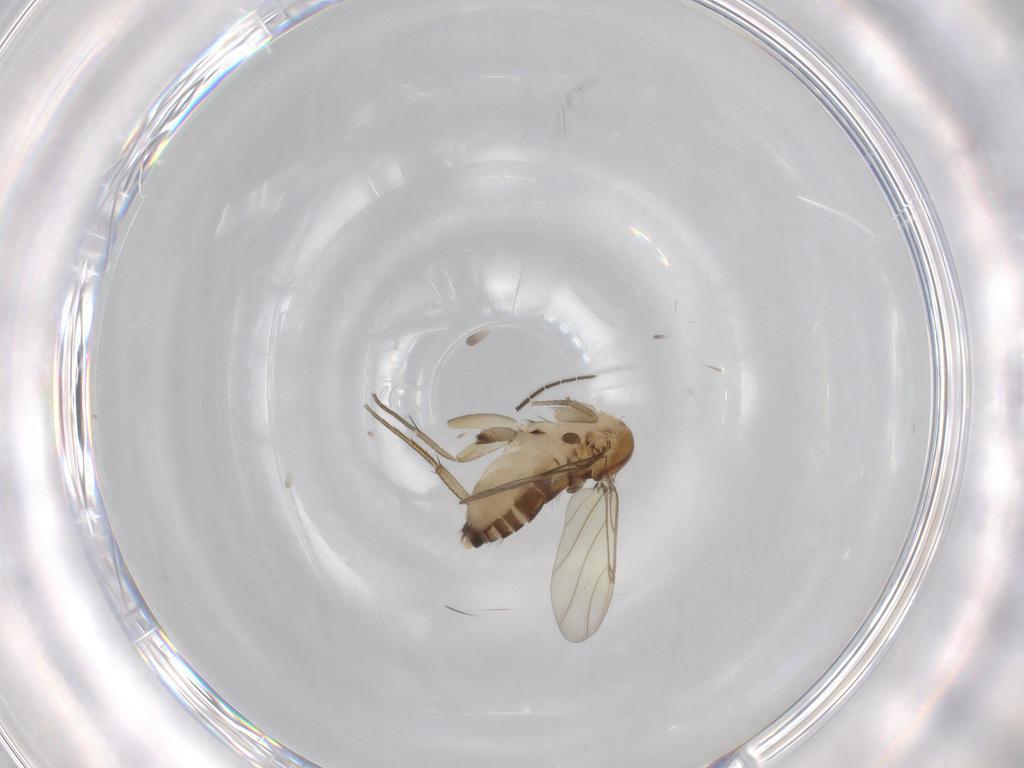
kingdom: Animalia
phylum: Arthropoda
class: Insecta
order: Diptera
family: Phoridae
